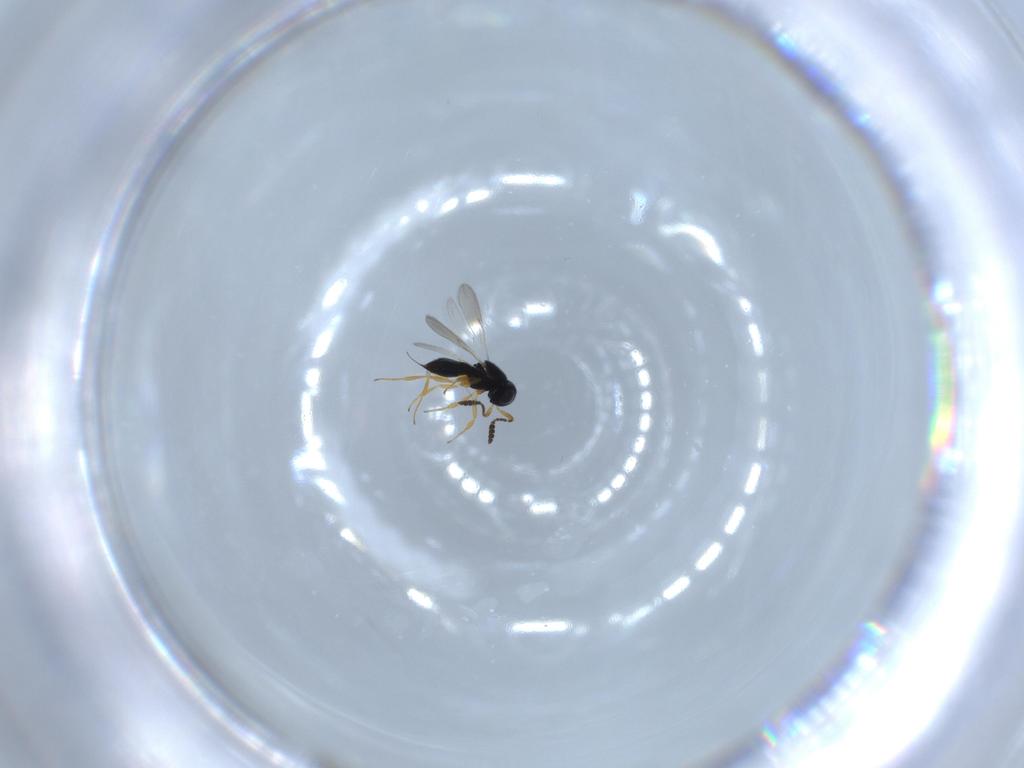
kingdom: Animalia
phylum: Arthropoda
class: Insecta
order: Hymenoptera
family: Scelionidae
